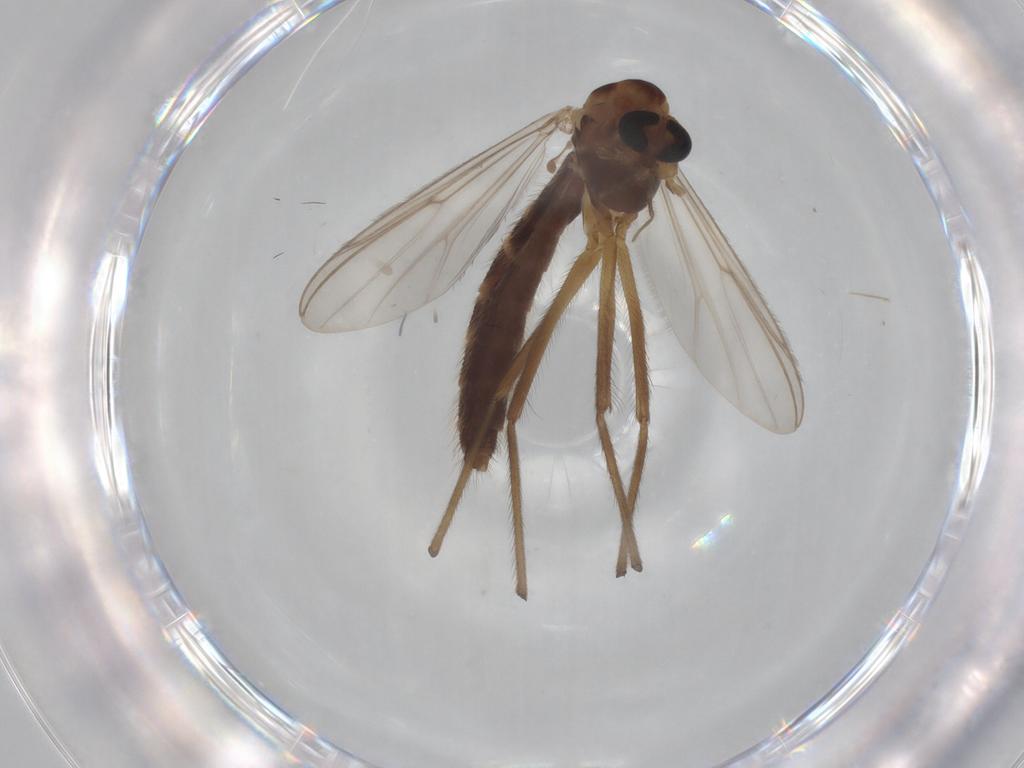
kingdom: Animalia
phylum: Arthropoda
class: Insecta
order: Diptera
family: Chironomidae
